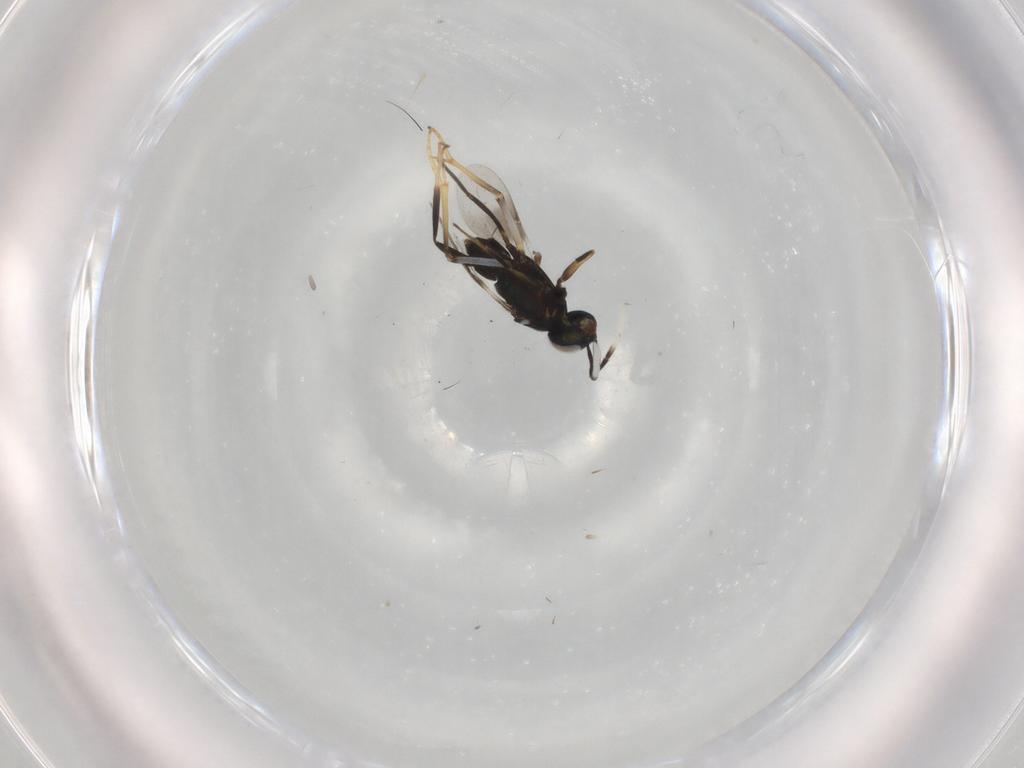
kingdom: Animalia
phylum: Arthropoda
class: Insecta
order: Hymenoptera
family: Encyrtidae
